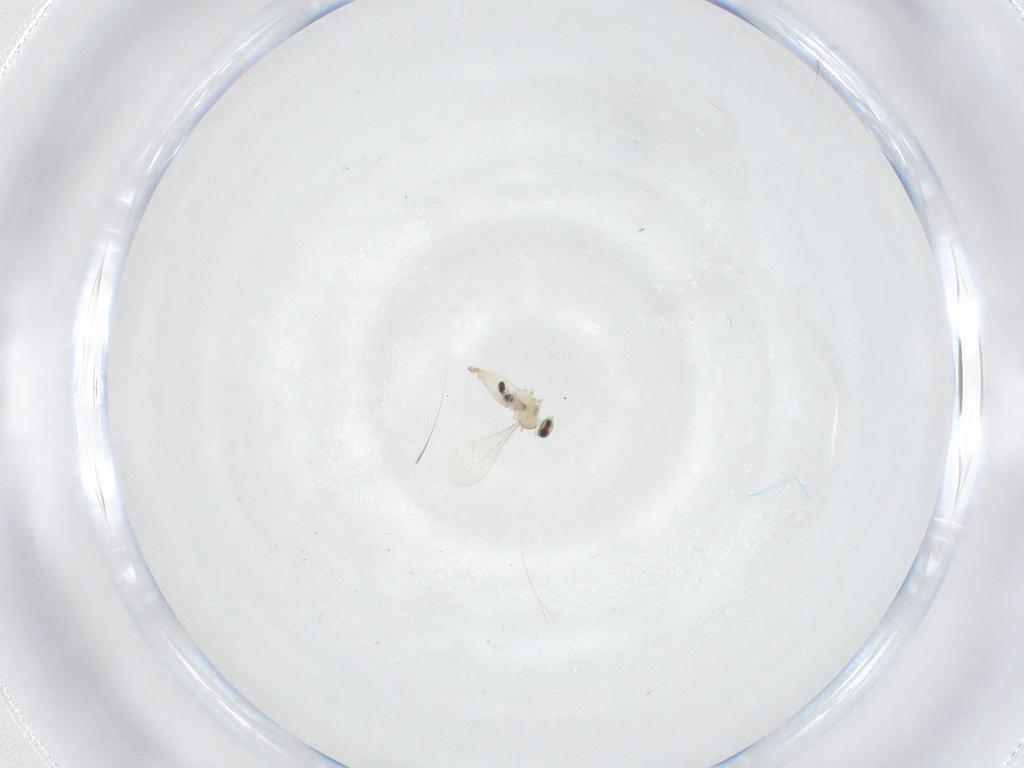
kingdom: Animalia
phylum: Arthropoda
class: Insecta
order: Diptera
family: Cecidomyiidae
